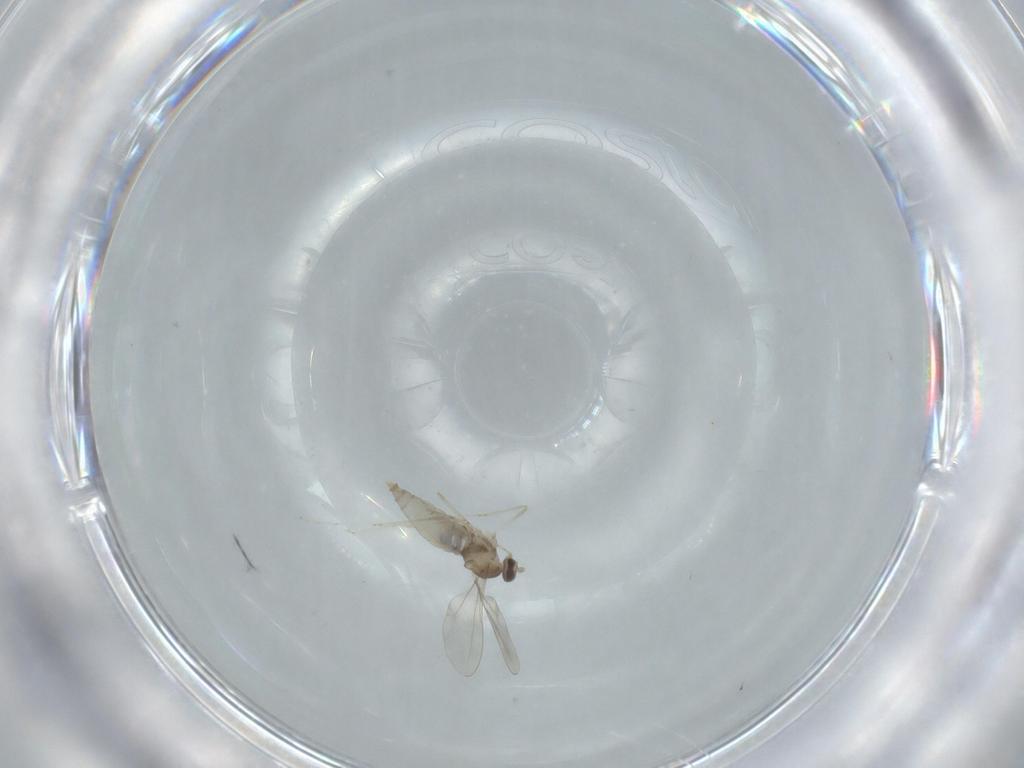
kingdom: Animalia
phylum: Arthropoda
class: Insecta
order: Diptera
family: Cecidomyiidae
